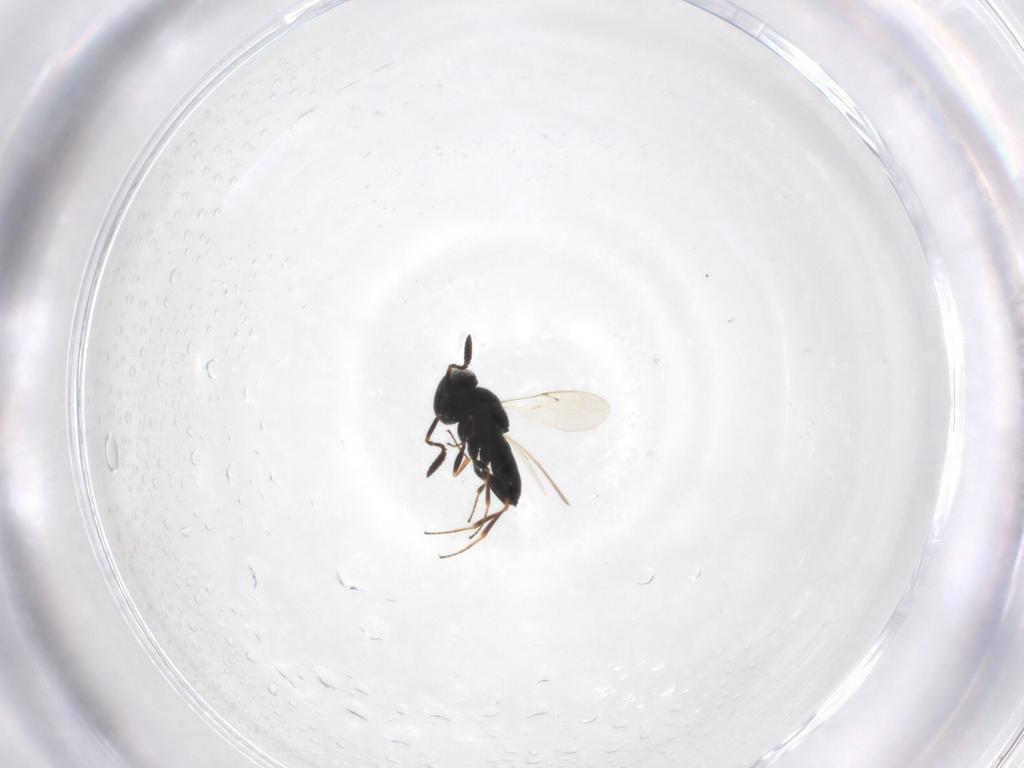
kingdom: Animalia
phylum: Arthropoda
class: Insecta
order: Hymenoptera
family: Scelionidae
